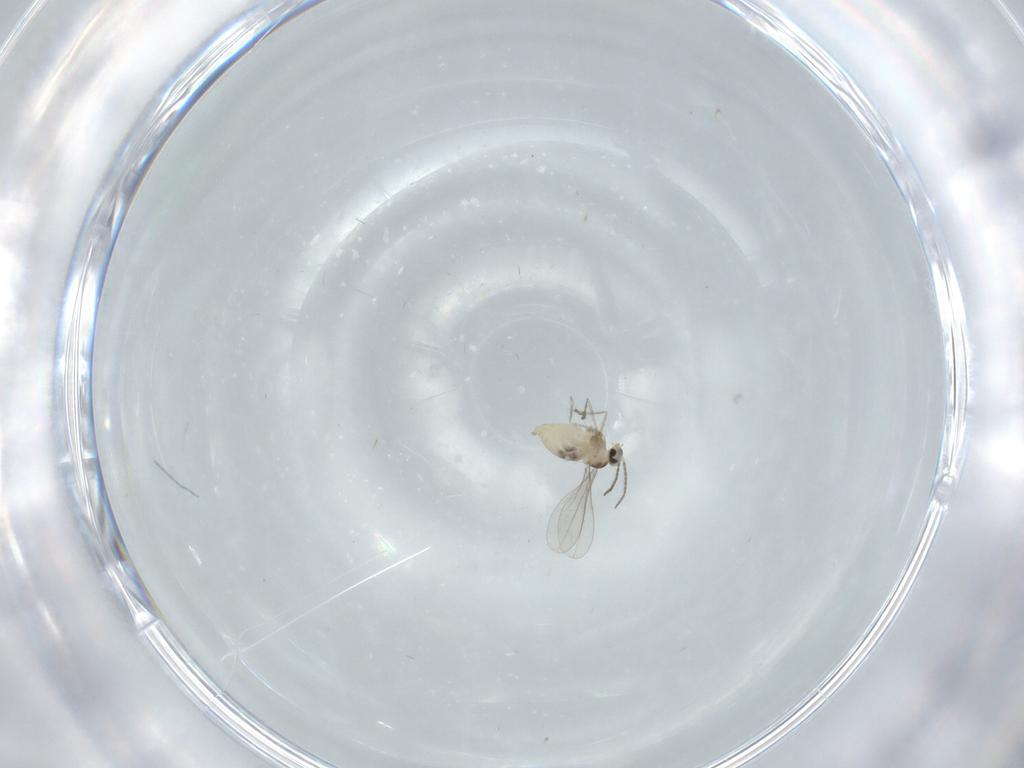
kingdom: Animalia
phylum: Arthropoda
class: Insecta
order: Diptera
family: Cecidomyiidae
